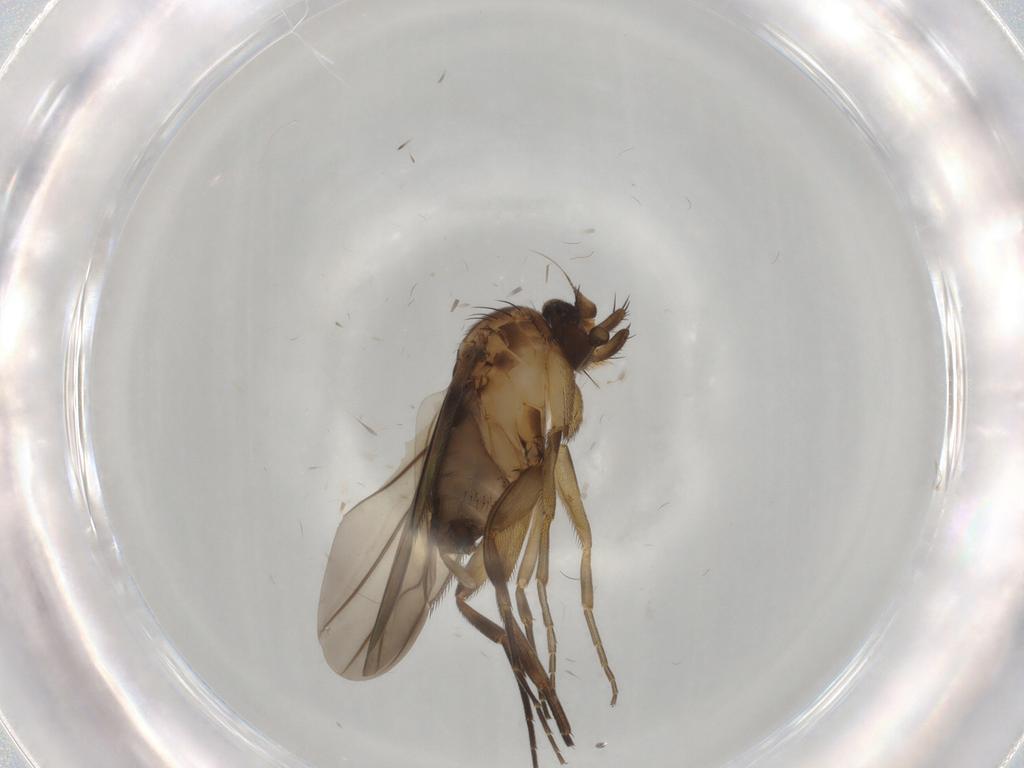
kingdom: Animalia
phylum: Arthropoda
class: Insecta
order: Diptera
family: Phoridae
